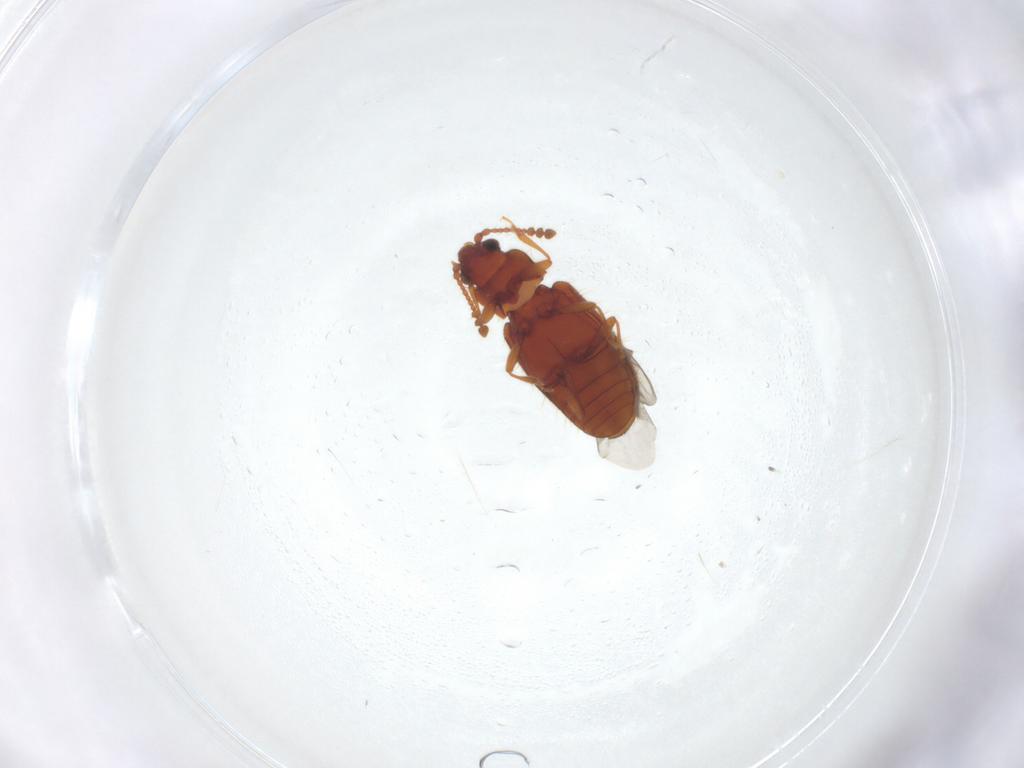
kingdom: Animalia
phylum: Arthropoda
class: Insecta
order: Coleoptera
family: Cryptophagidae
